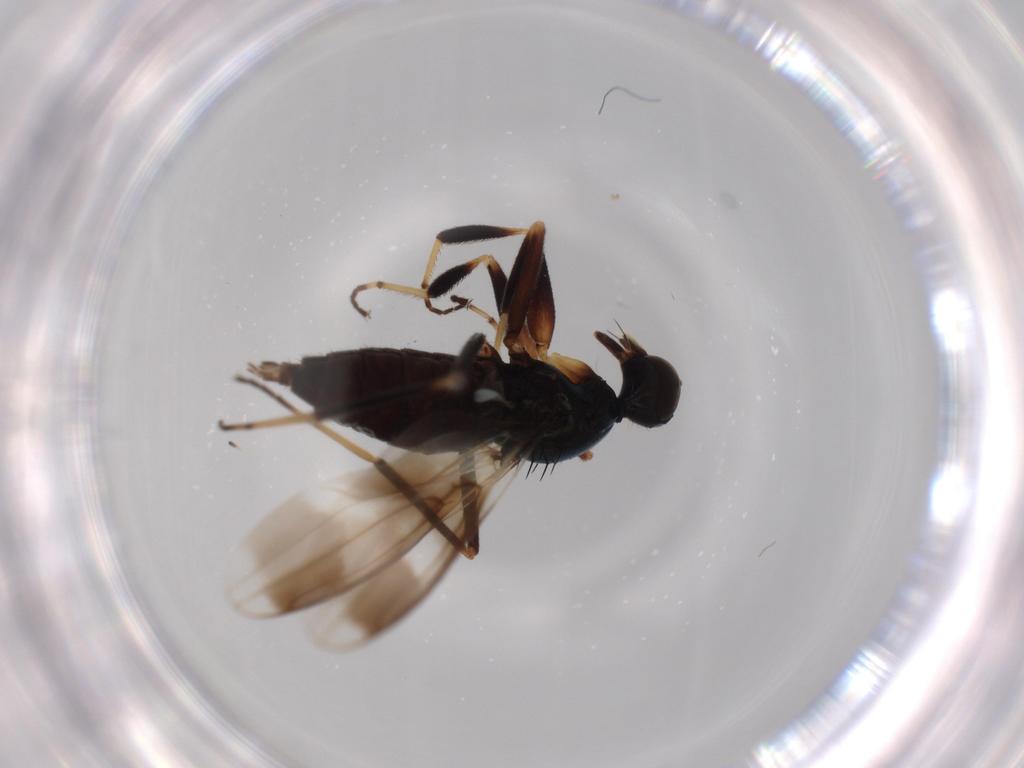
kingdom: Animalia
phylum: Arthropoda
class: Insecta
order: Diptera
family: Hybotidae
